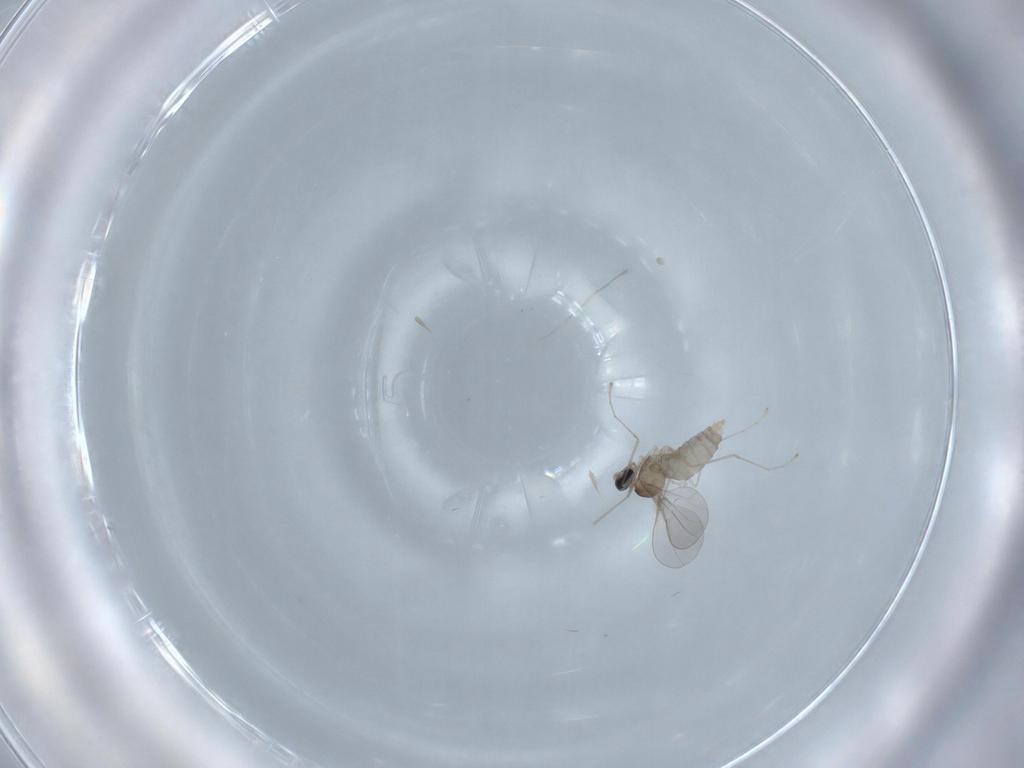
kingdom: Animalia
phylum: Arthropoda
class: Insecta
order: Diptera
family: Cecidomyiidae
